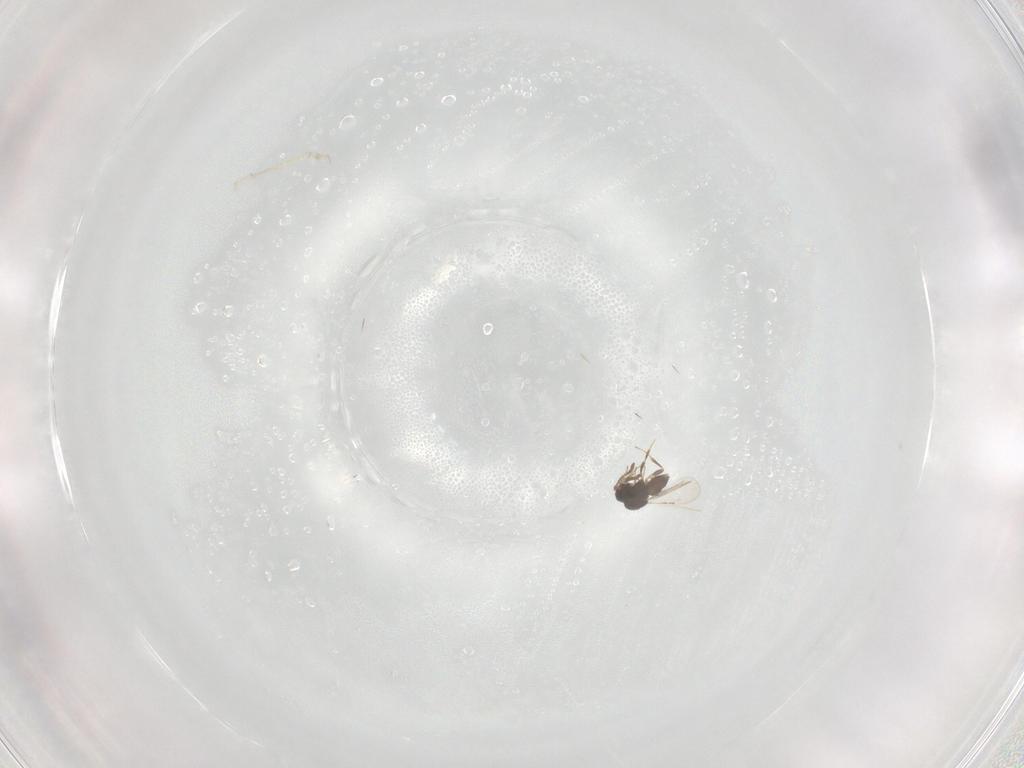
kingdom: Animalia
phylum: Arthropoda
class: Insecta
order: Hymenoptera
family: Ceraphronidae
